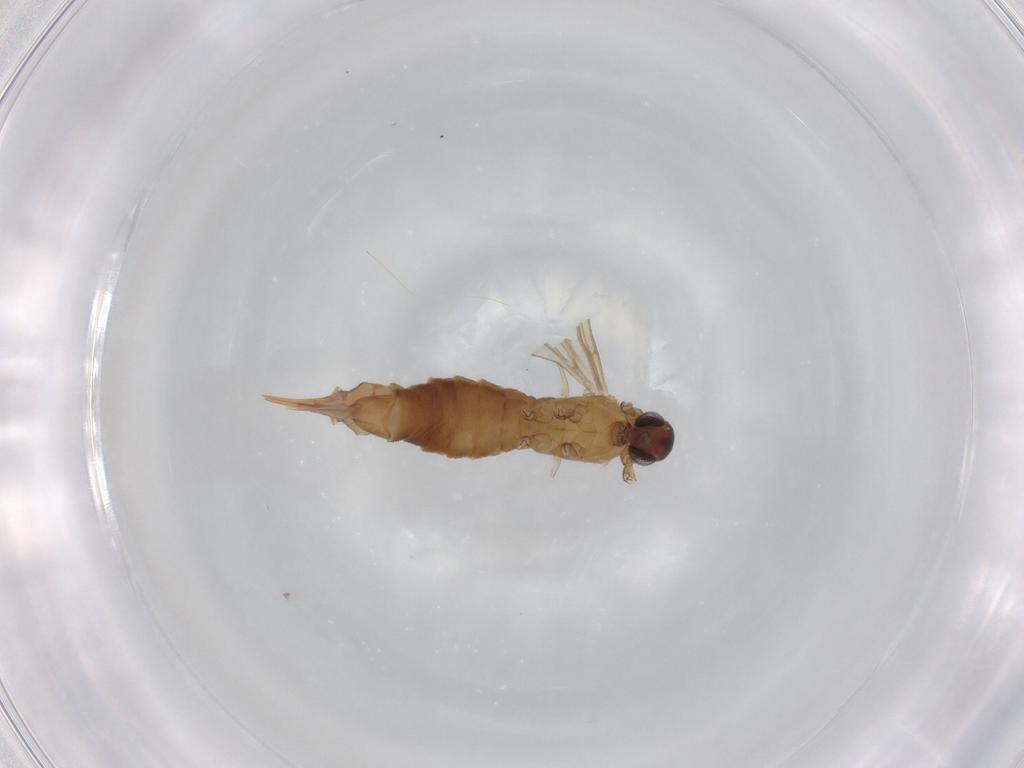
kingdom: Animalia
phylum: Arthropoda
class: Insecta
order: Diptera
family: Limoniidae
